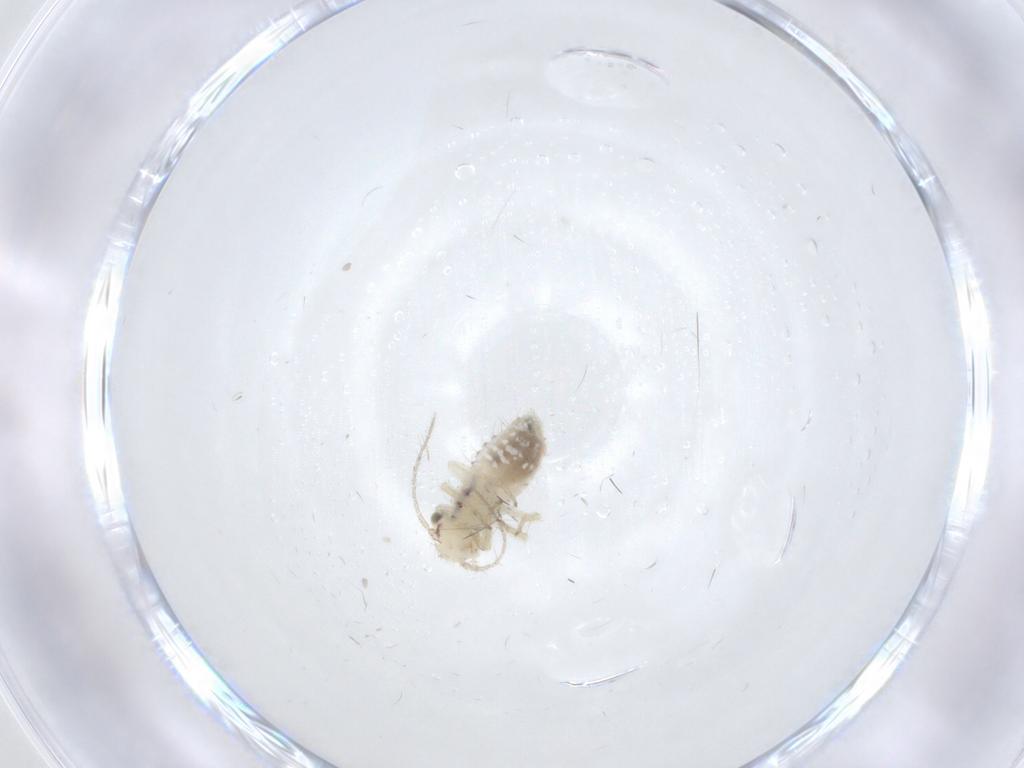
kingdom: Animalia
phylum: Arthropoda
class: Insecta
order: Psocodea
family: Pseudocaeciliidae
